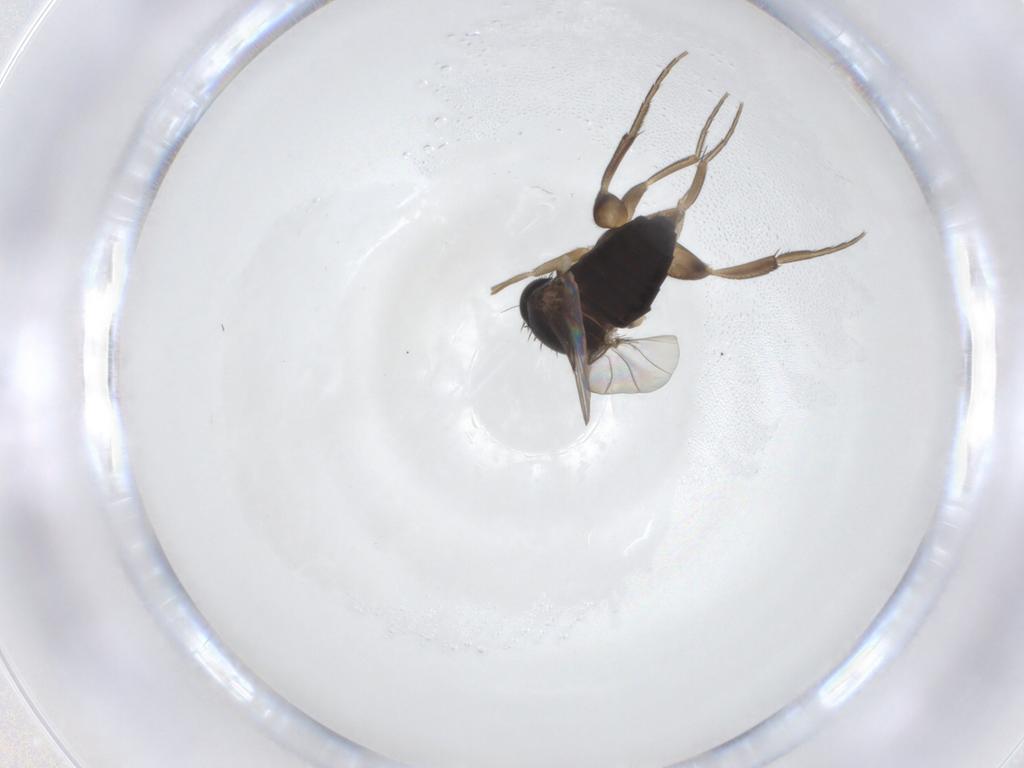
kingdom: Animalia
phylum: Arthropoda
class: Insecta
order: Diptera
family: Phoridae
